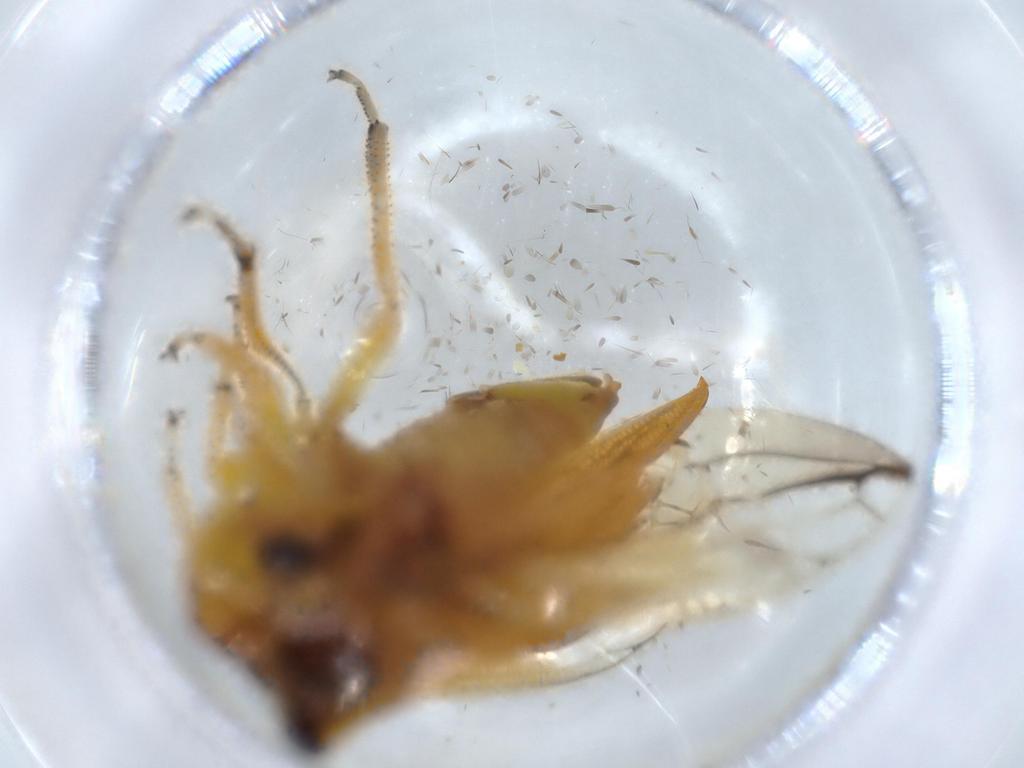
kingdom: Animalia
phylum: Arthropoda
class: Insecta
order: Hemiptera
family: Membracidae
